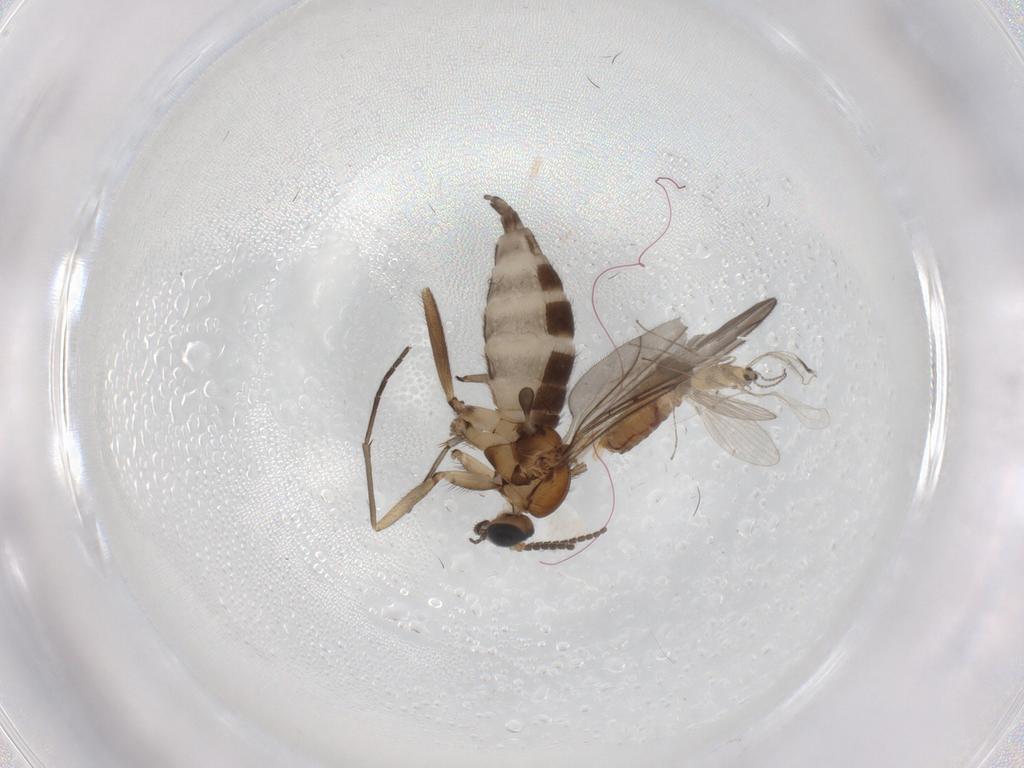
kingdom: Animalia
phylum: Arthropoda
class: Insecta
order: Diptera
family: Sciaridae
